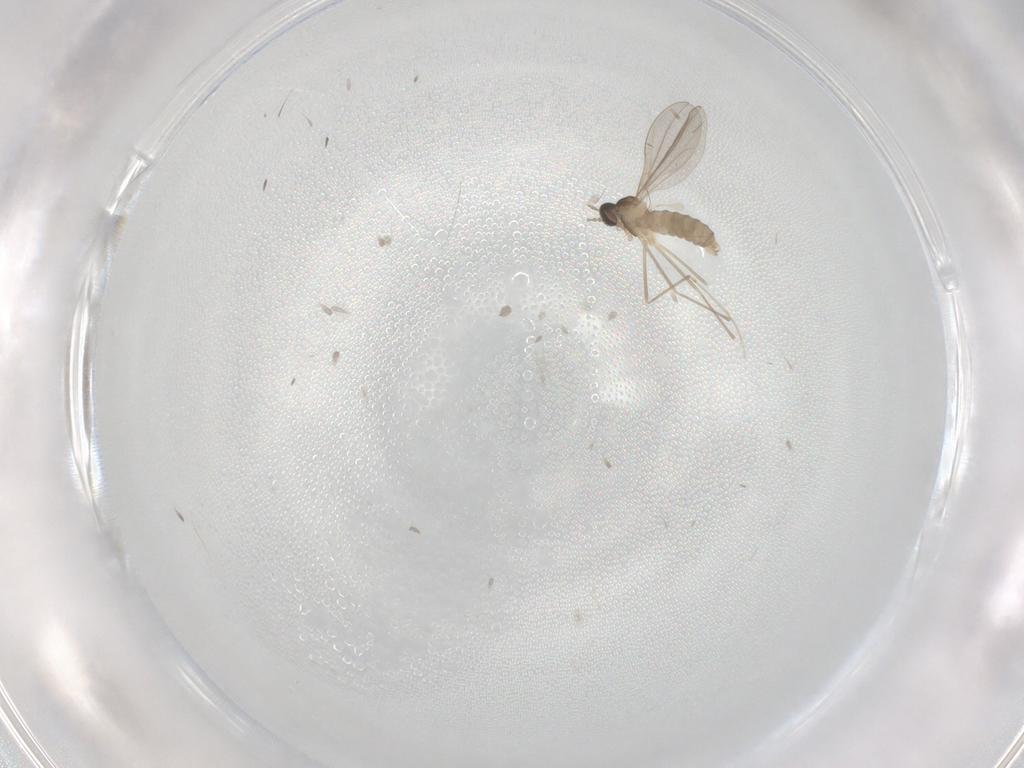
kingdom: Animalia
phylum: Arthropoda
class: Insecta
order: Diptera
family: Cecidomyiidae
